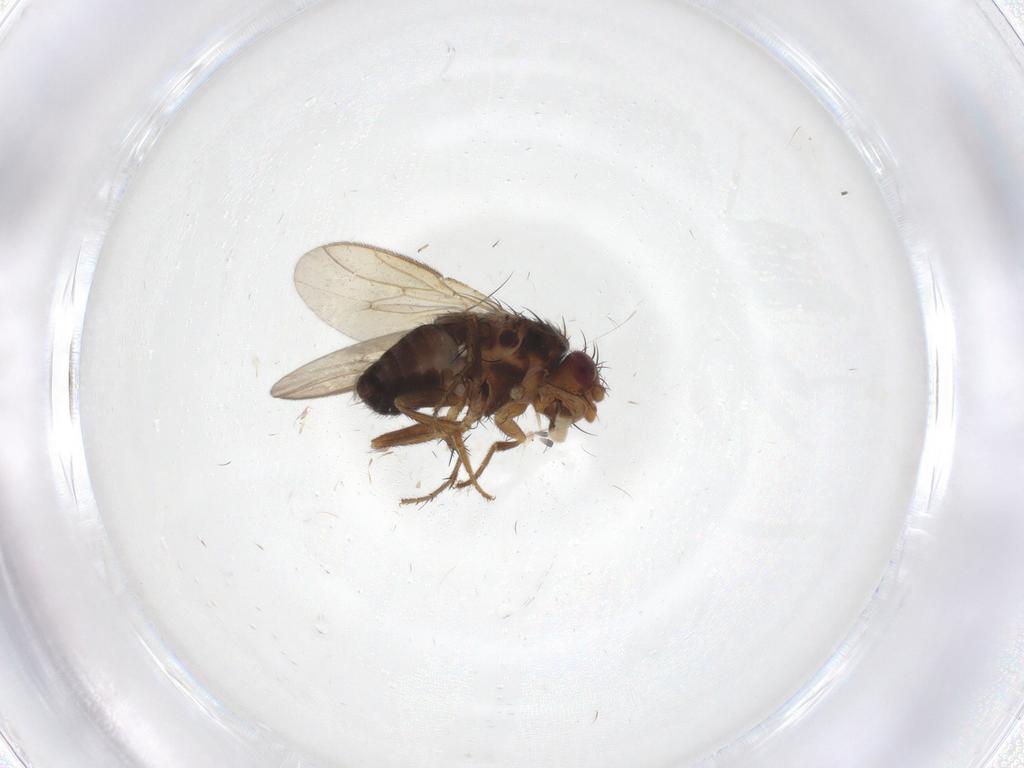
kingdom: Animalia
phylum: Arthropoda
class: Insecta
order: Diptera
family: Sphaeroceridae
